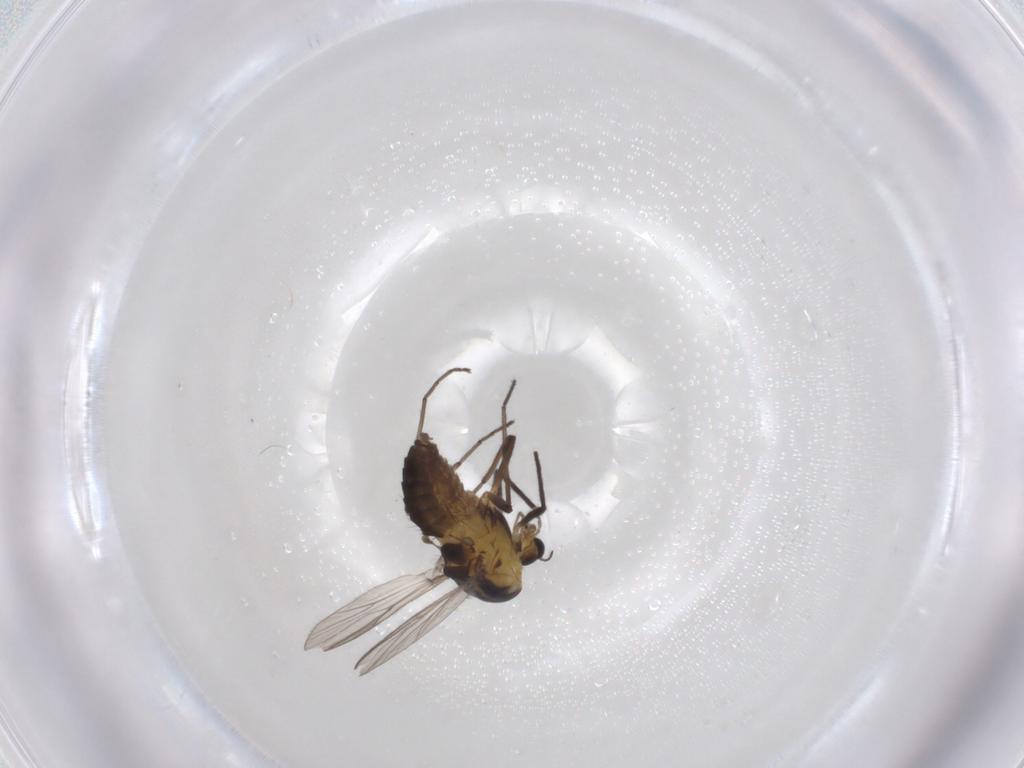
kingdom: Animalia
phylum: Arthropoda
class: Insecta
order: Diptera
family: Chironomidae
